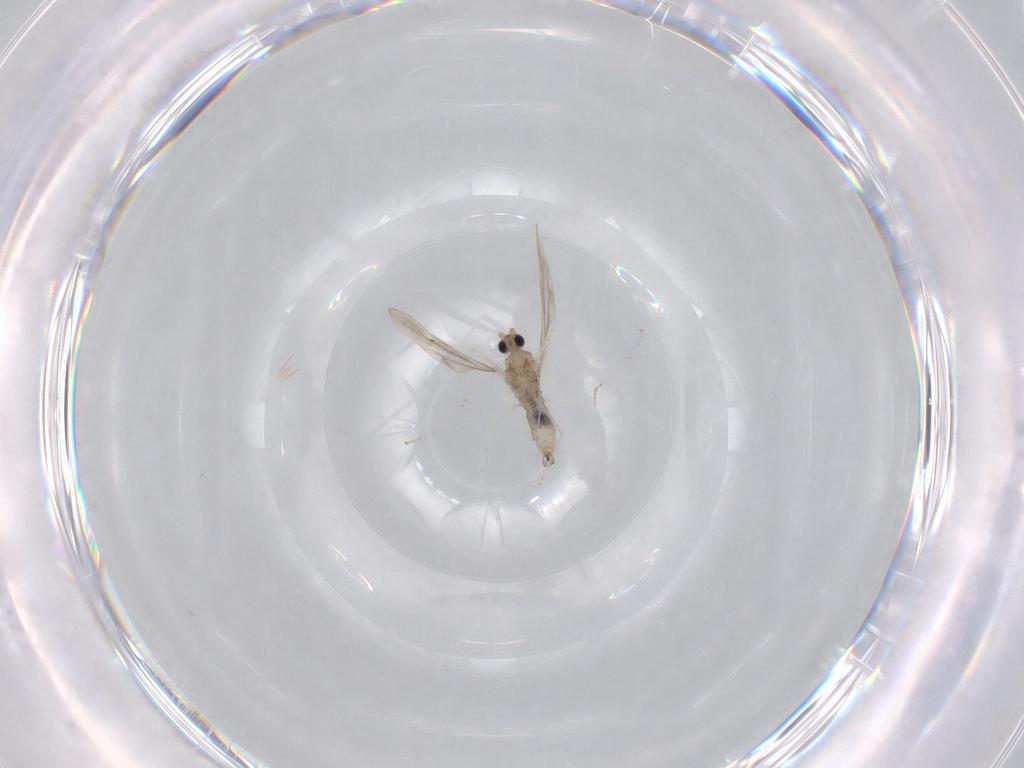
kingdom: Animalia
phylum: Arthropoda
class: Insecta
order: Diptera
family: Cecidomyiidae
